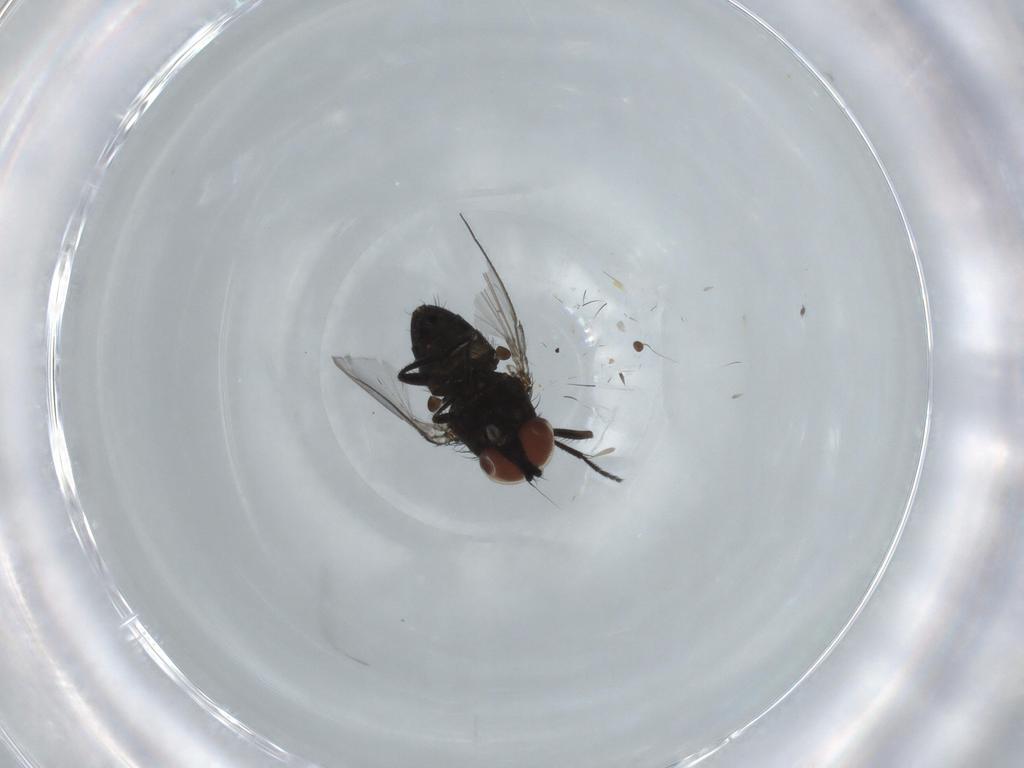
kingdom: Animalia
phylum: Arthropoda
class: Insecta
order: Diptera
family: Milichiidae
